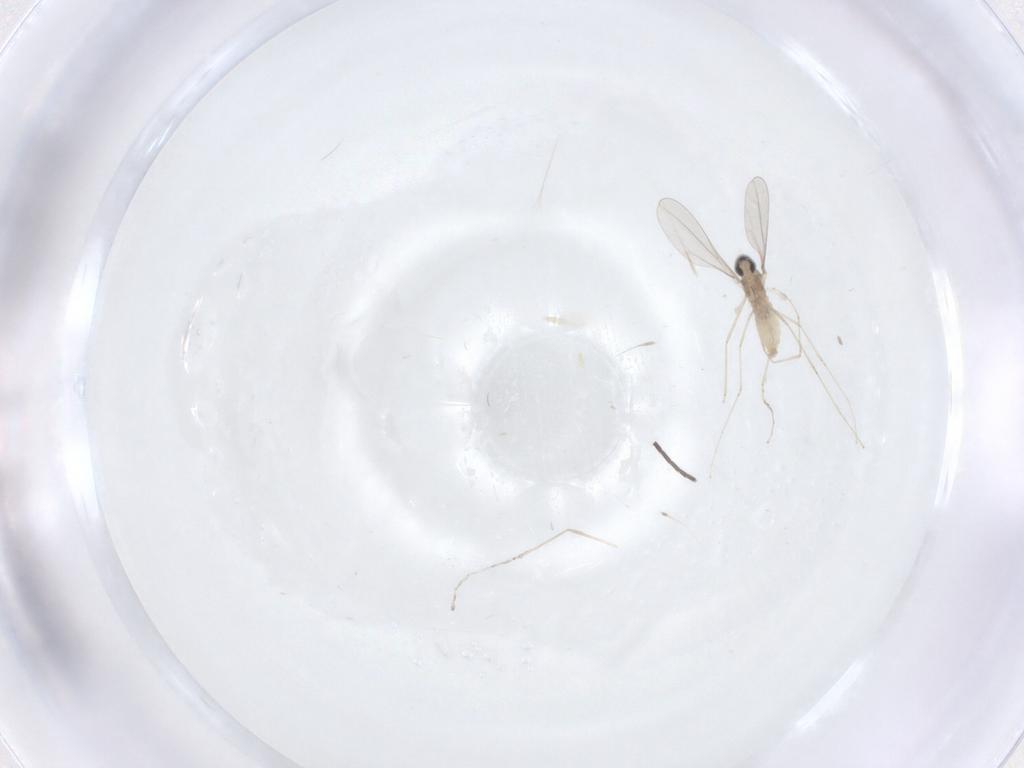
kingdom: Animalia
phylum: Arthropoda
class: Insecta
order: Diptera
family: Cecidomyiidae
